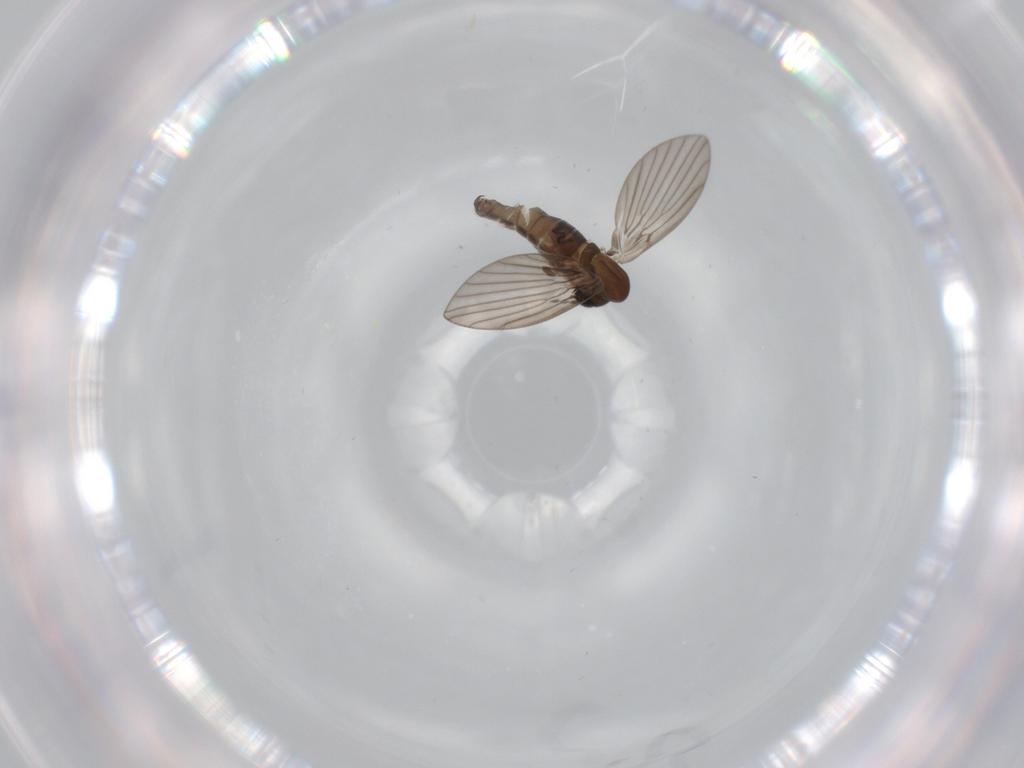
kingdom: Animalia
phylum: Arthropoda
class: Insecta
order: Diptera
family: Psychodidae
